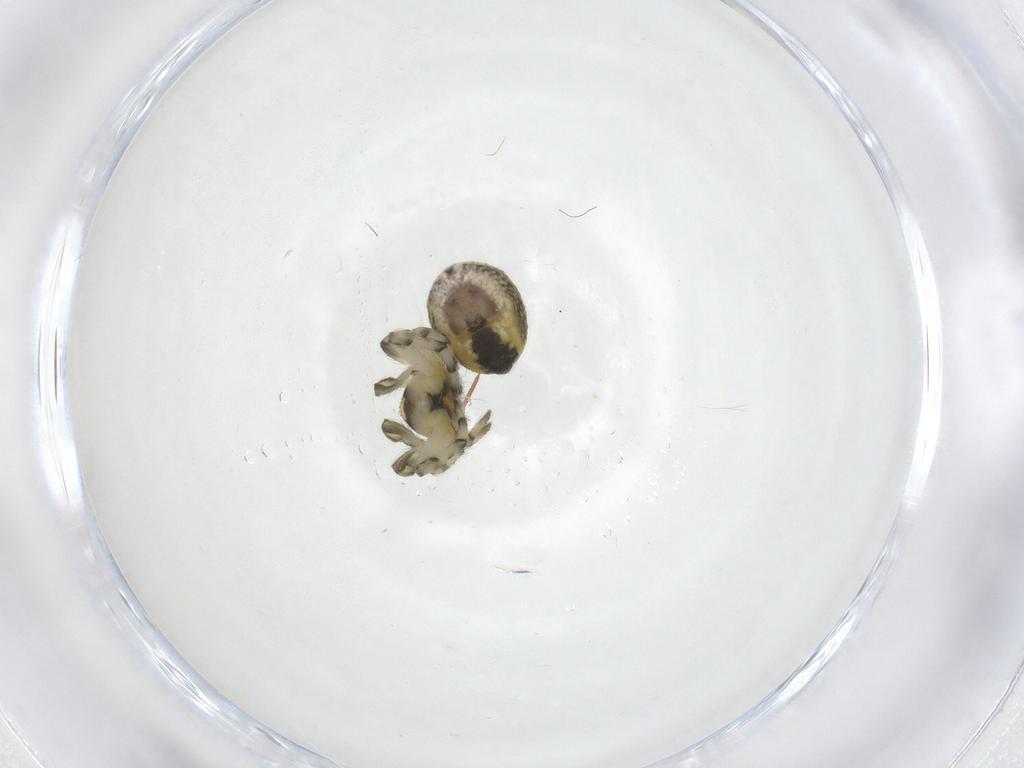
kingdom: Animalia
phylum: Arthropoda
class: Arachnida
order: Araneae
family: Araneidae
